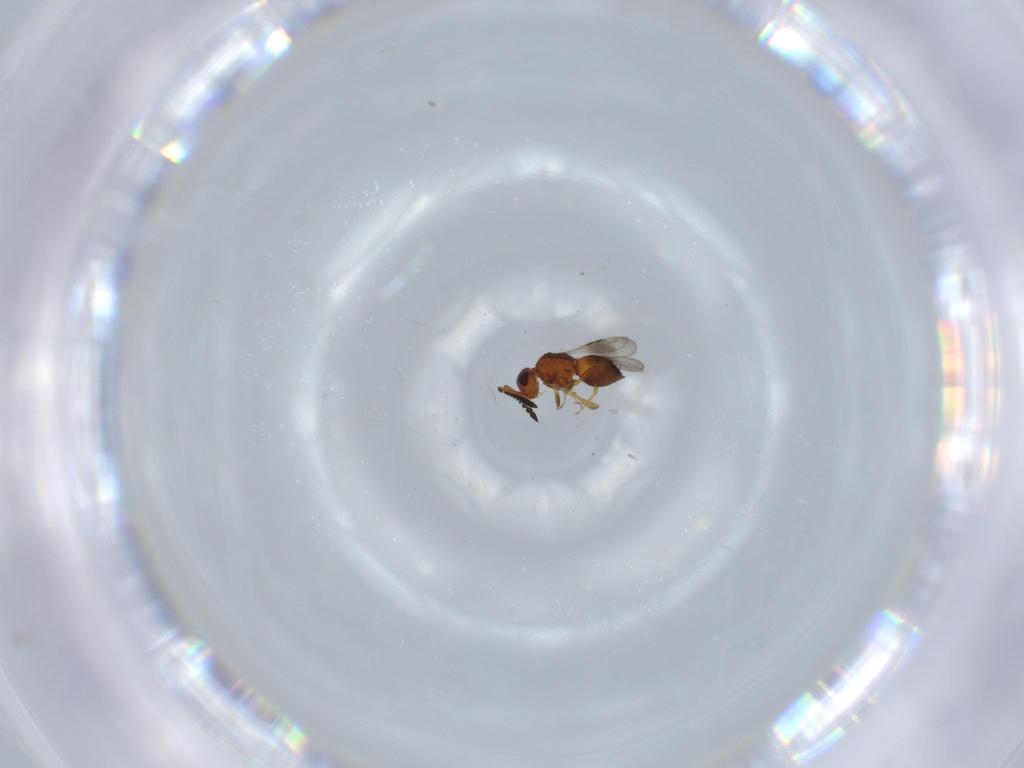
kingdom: Animalia
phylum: Arthropoda
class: Insecta
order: Hymenoptera
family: Ceraphronidae
